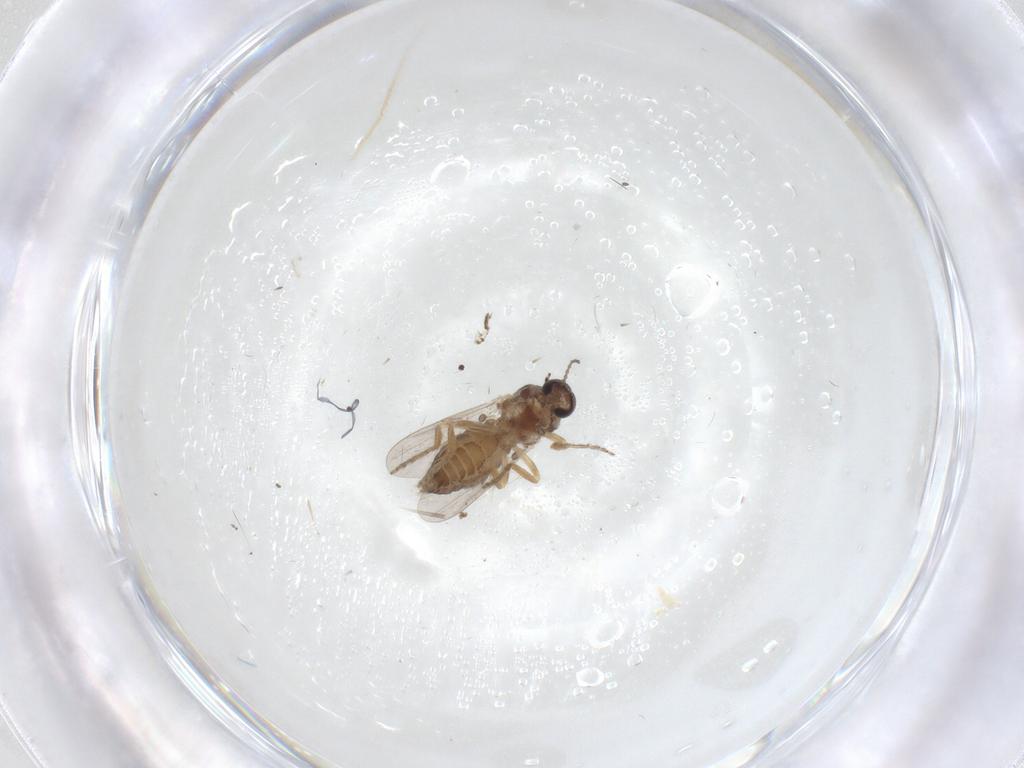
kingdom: Animalia
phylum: Arthropoda
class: Insecta
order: Diptera
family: Ceratopogonidae
